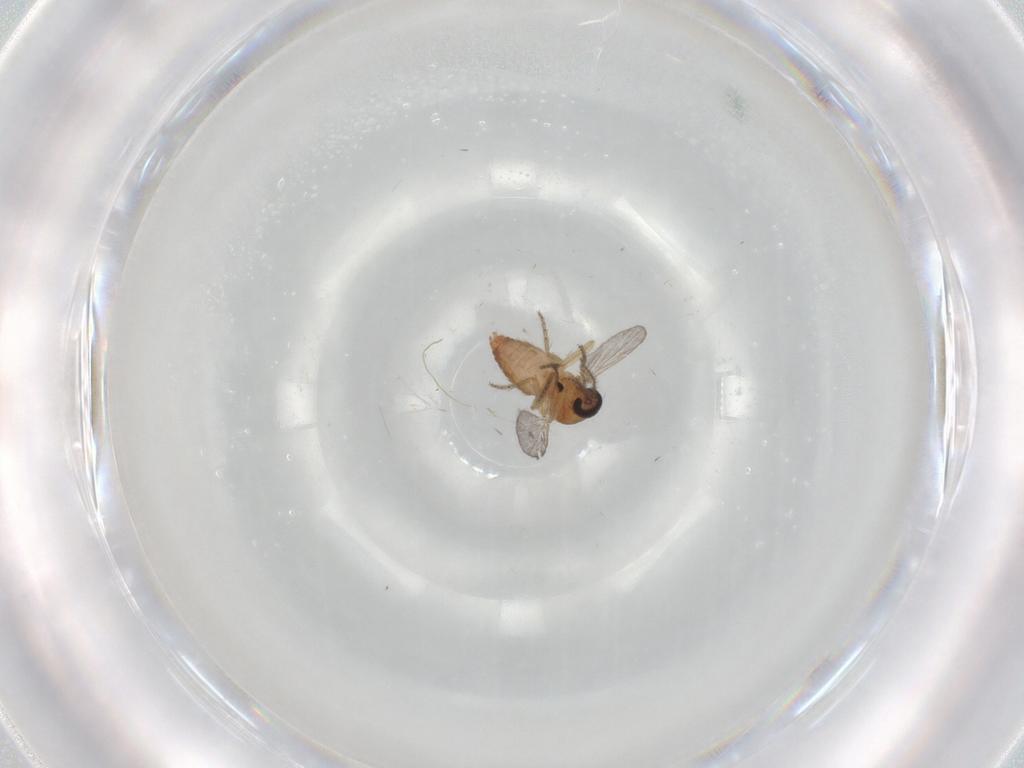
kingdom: Animalia
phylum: Arthropoda
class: Insecta
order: Diptera
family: Ceratopogonidae
